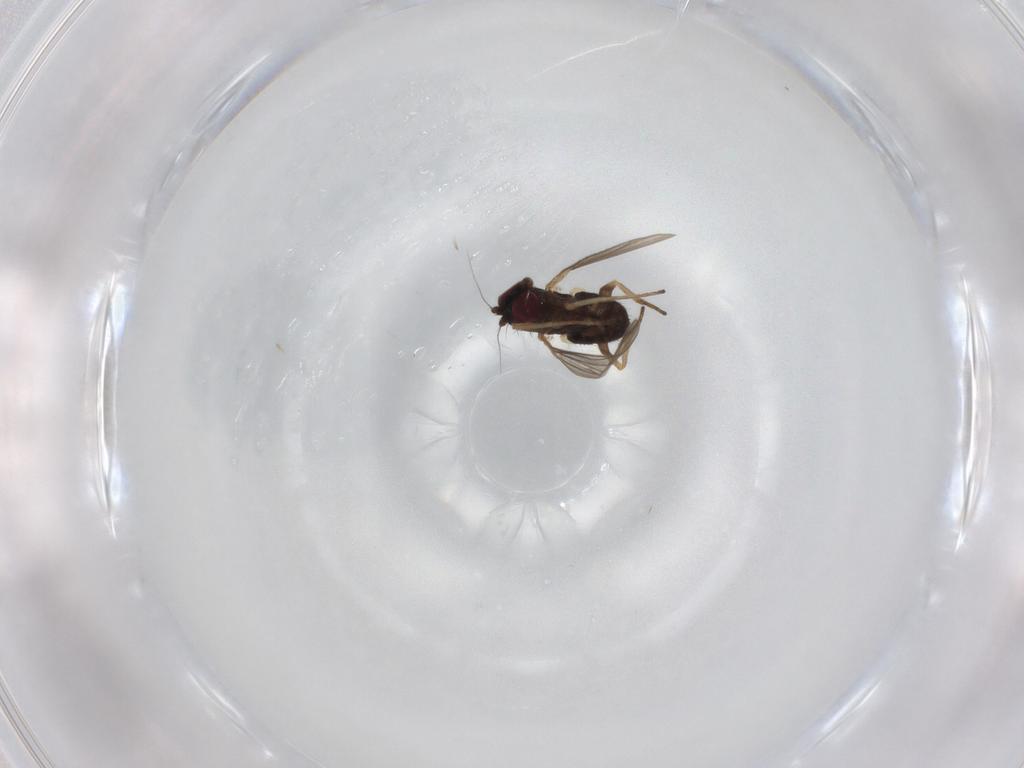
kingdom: Animalia
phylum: Arthropoda
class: Insecta
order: Diptera
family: Dolichopodidae
